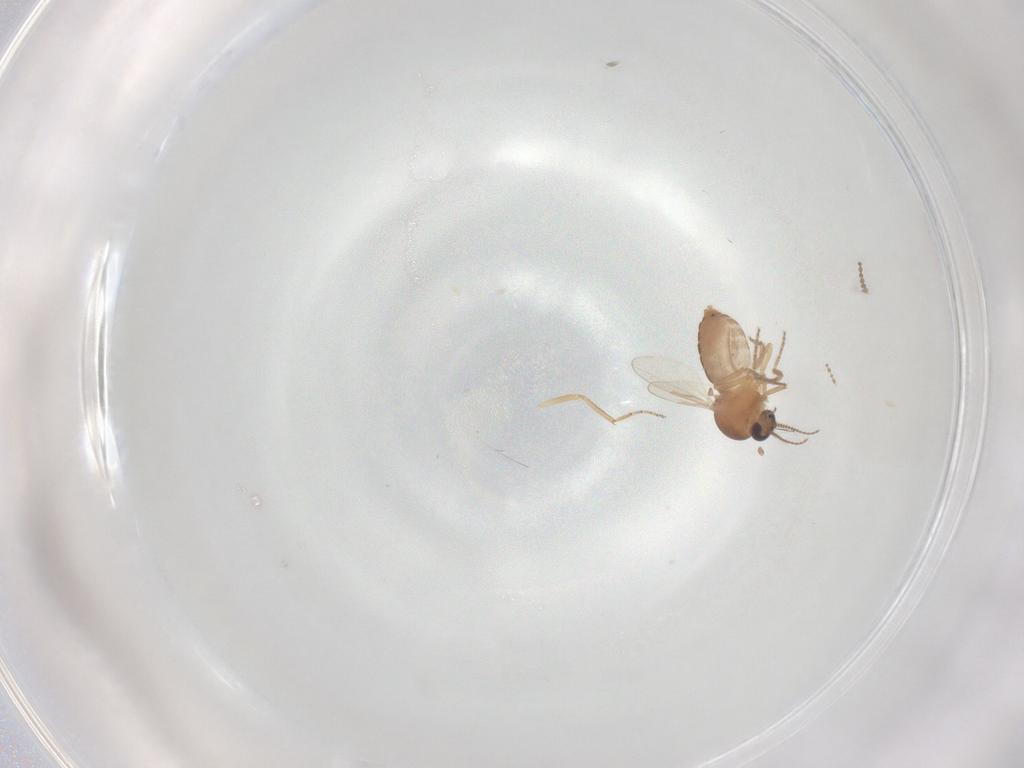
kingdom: Animalia
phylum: Arthropoda
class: Insecta
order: Diptera
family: Ceratopogonidae
